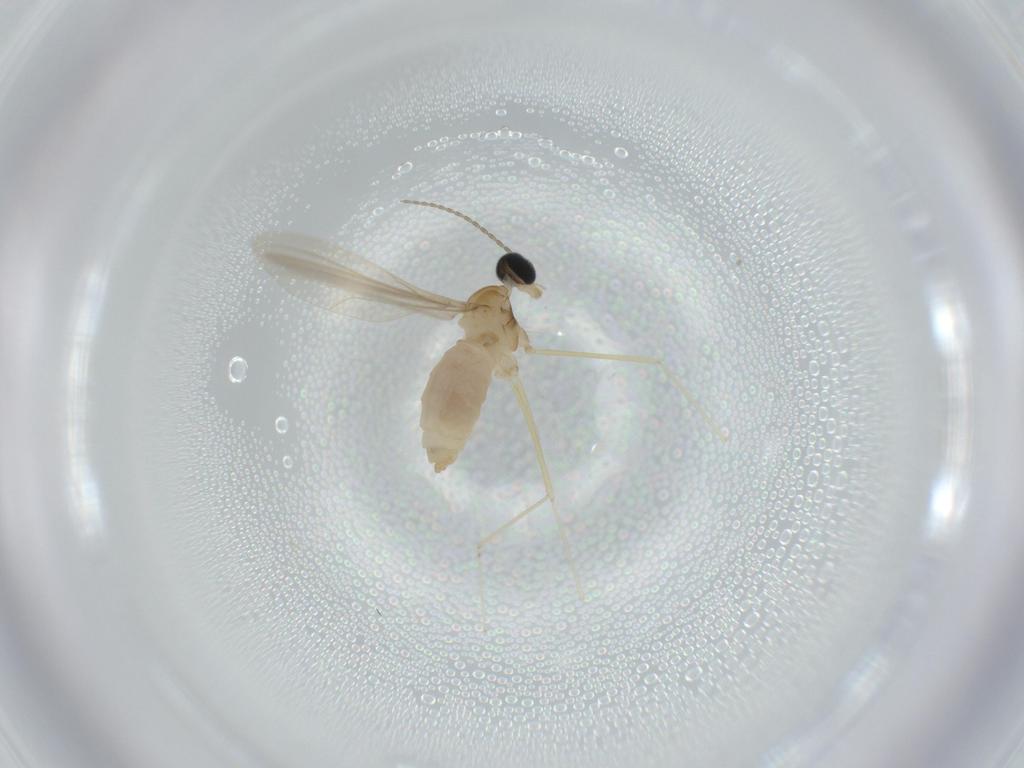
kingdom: Animalia
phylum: Arthropoda
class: Insecta
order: Diptera
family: Cecidomyiidae
